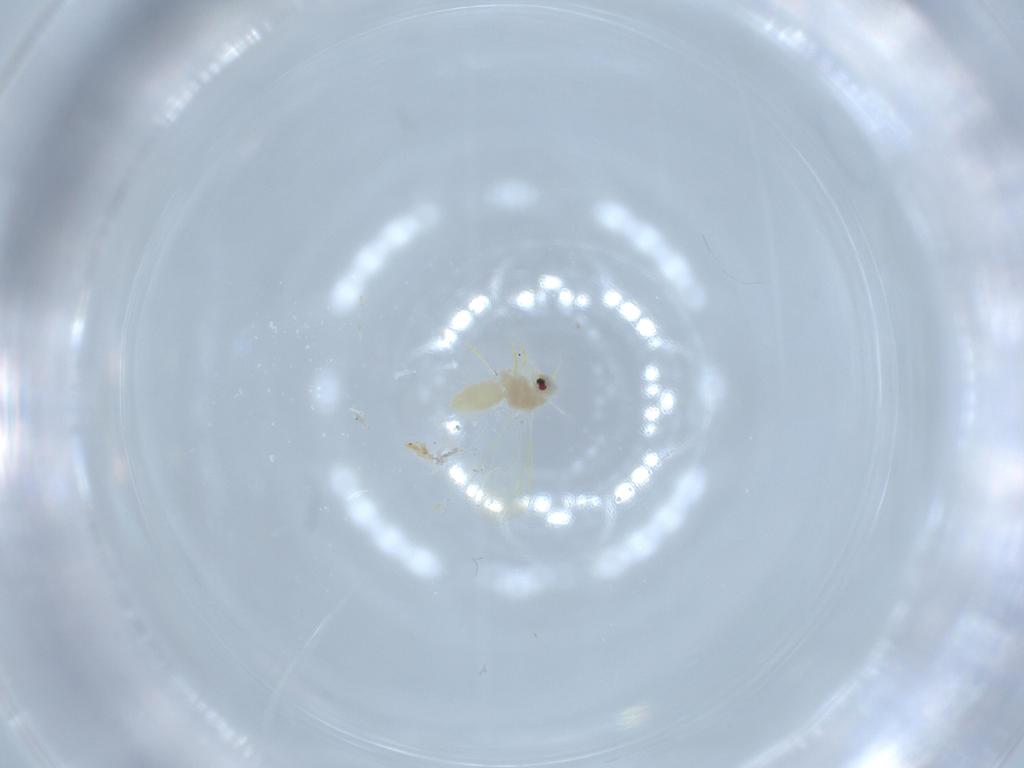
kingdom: Animalia
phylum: Arthropoda
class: Insecta
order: Hemiptera
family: Aleyrodidae
